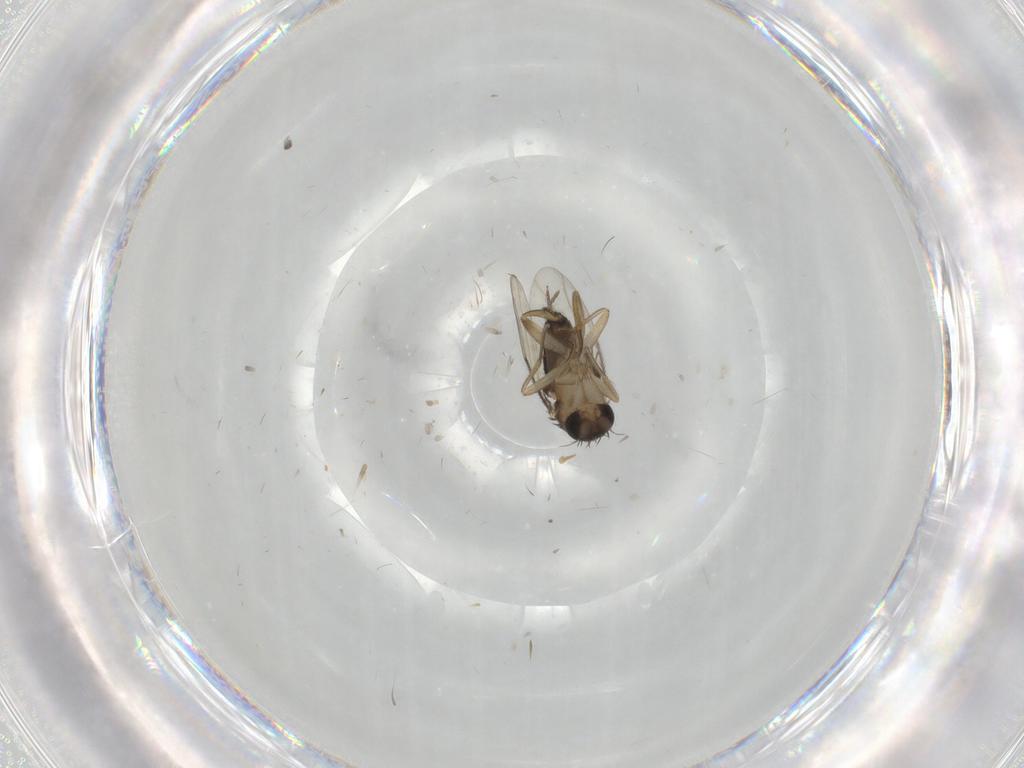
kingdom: Animalia
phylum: Arthropoda
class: Insecta
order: Diptera
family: Phoridae
